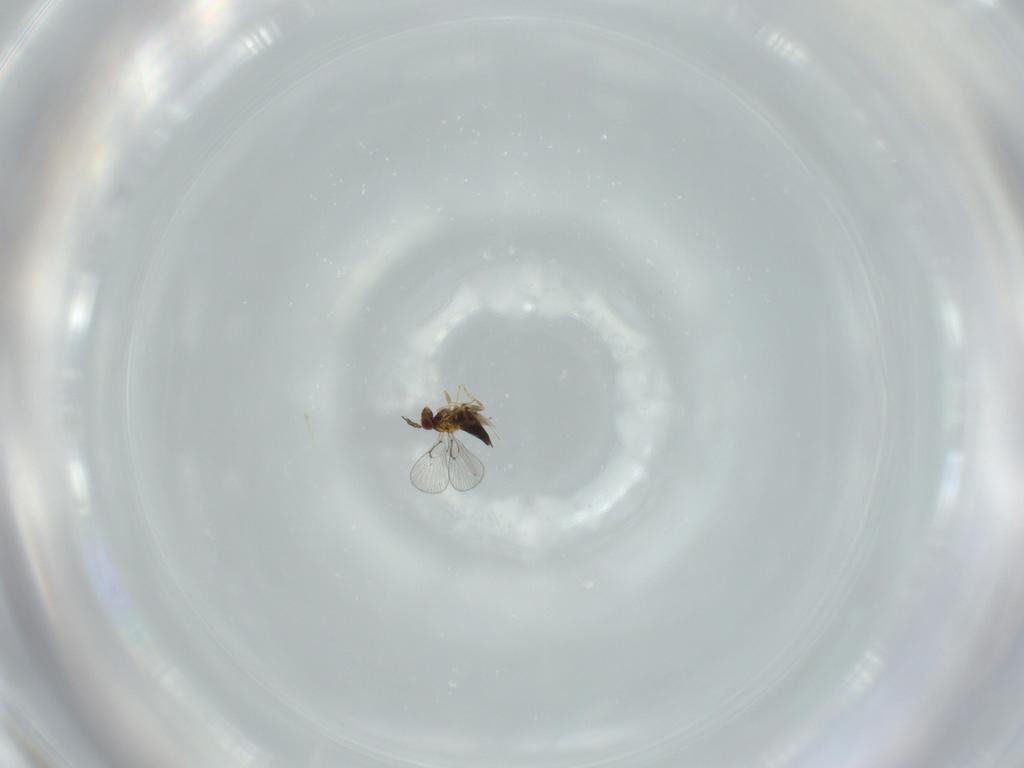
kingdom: Animalia
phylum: Arthropoda
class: Insecta
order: Hymenoptera
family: Trichogrammatidae
